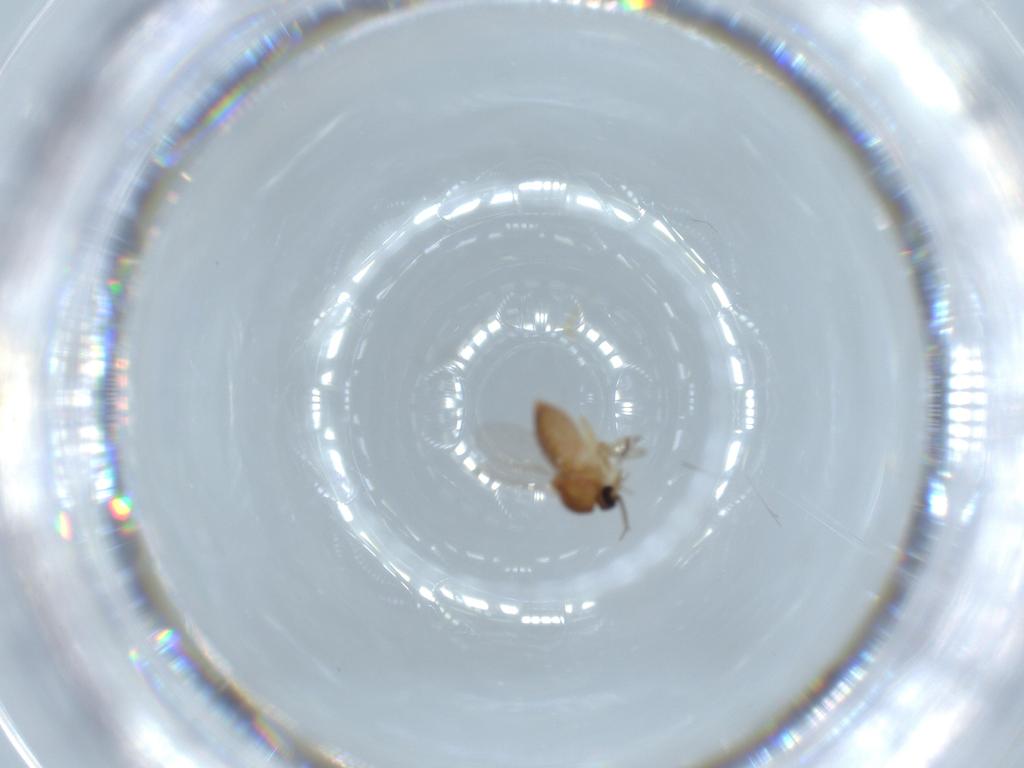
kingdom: Animalia
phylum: Arthropoda
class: Insecta
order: Diptera
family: Ceratopogonidae
